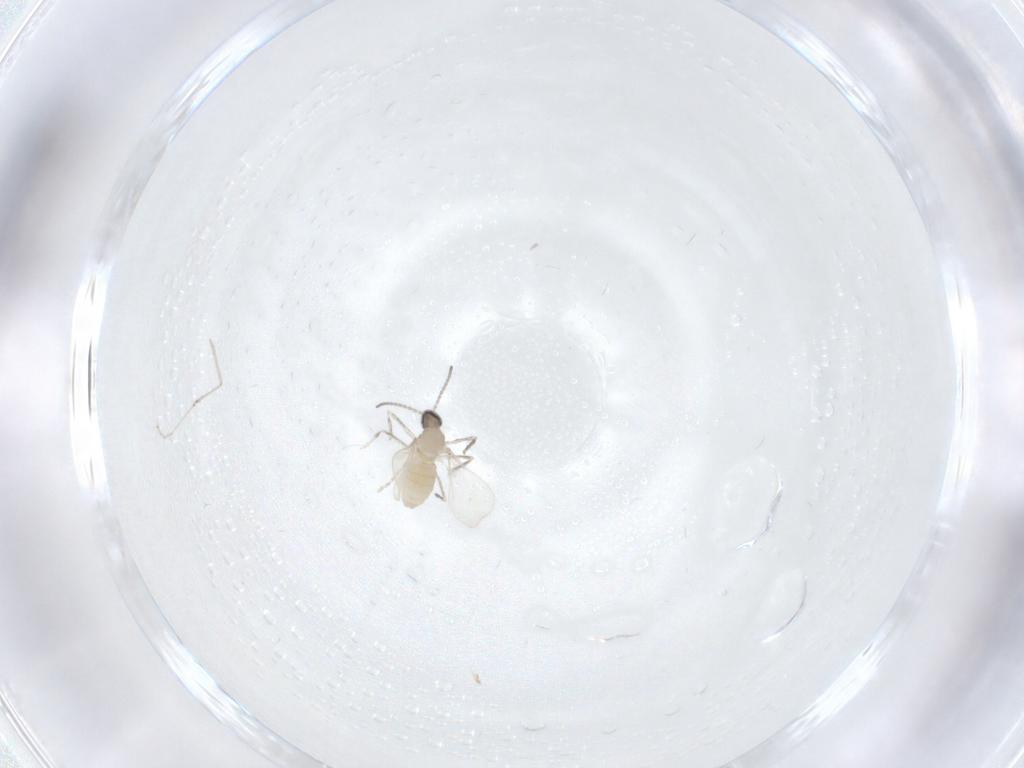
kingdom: Animalia
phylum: Arthropoda
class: Insecta
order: Diptera
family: Cecidomyiidae
